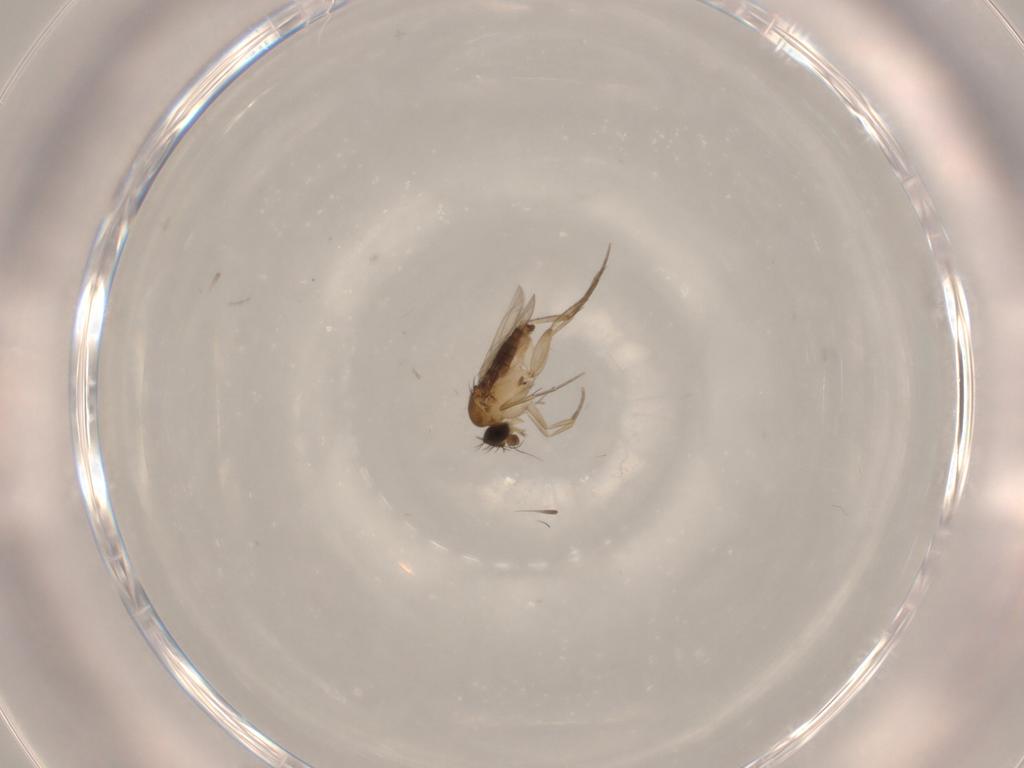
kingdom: Animalia
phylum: Arthropoda
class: Insecta
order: Diptera
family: Phoridae
